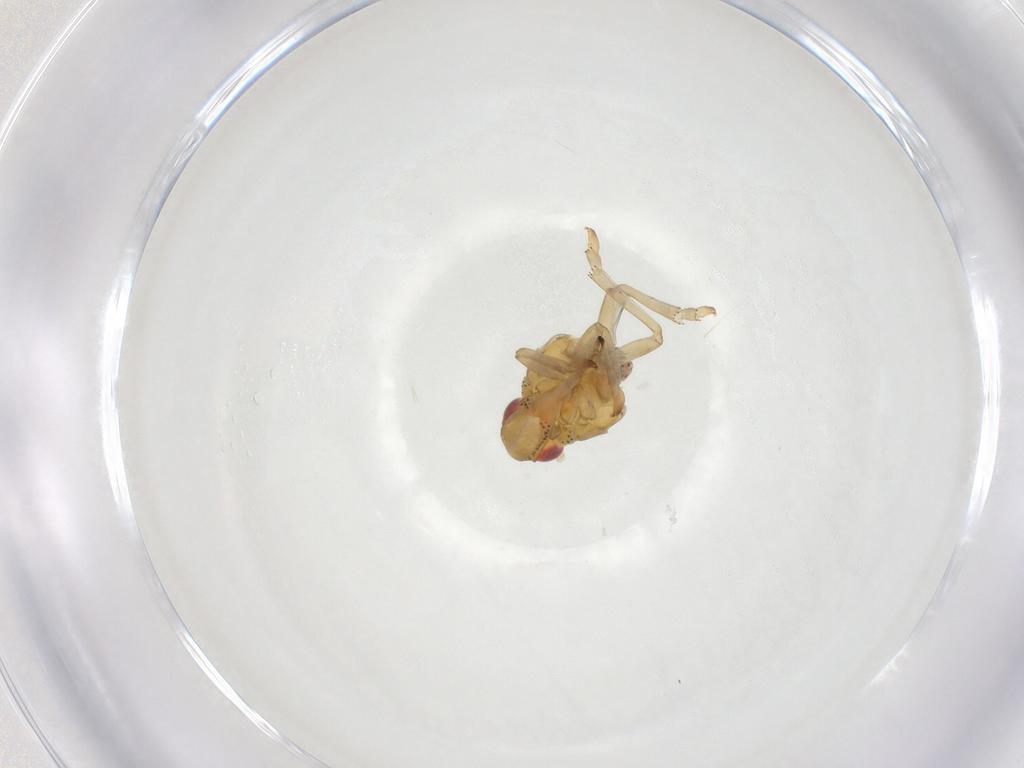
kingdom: Animalia
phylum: Arthropoda
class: Insecta
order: Hemiptera
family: Tropiduchidae
